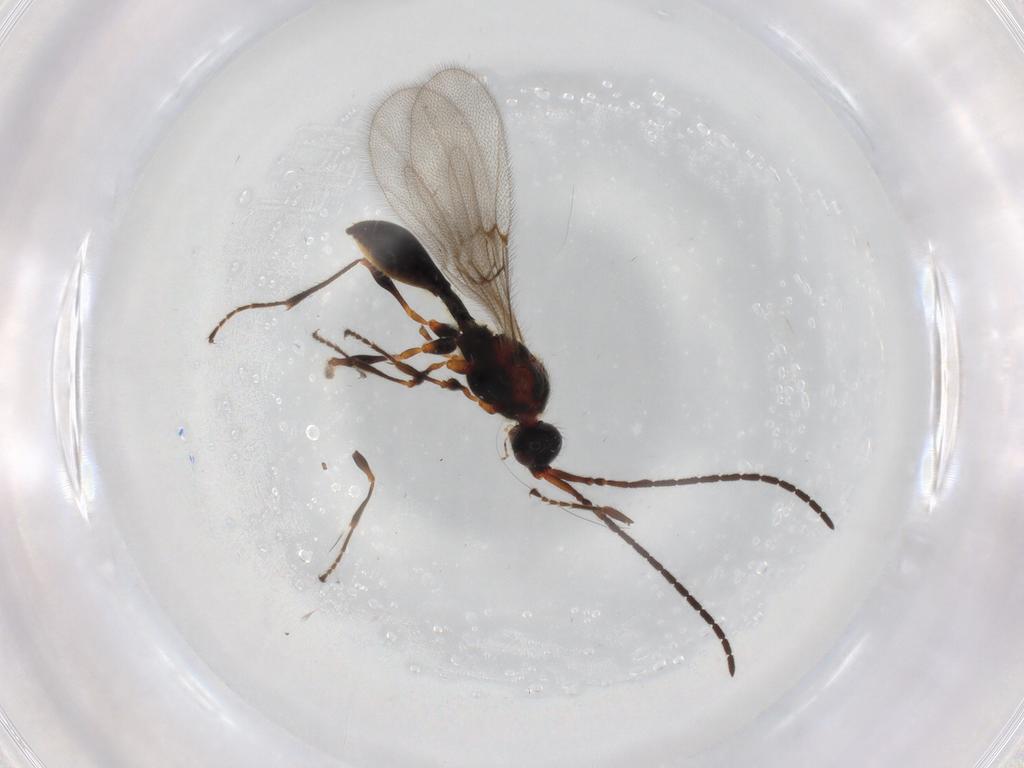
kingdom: Animalia
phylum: Arthropoda
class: Insecta
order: Hymenoptera
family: Diapriidae
